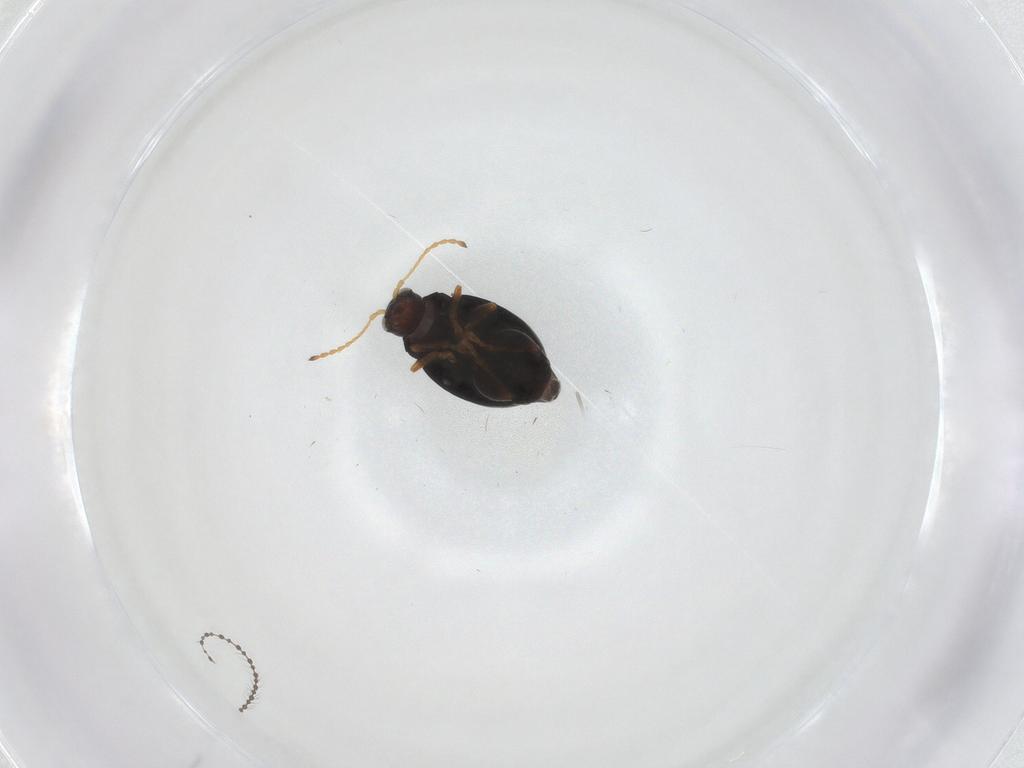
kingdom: Animalia
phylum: Arthropoda
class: Insecta
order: Coleoptera
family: Chrysomelidae
